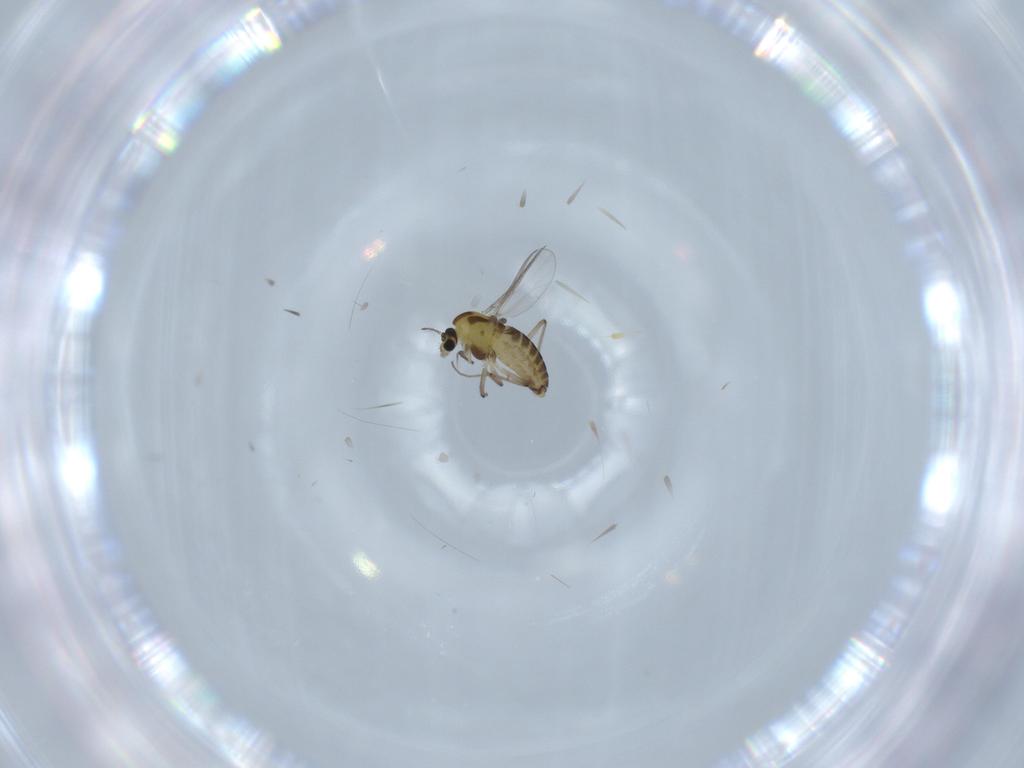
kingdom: Animalia
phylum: Arthropoda
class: Insecta
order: Diptera
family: Chironomidae
